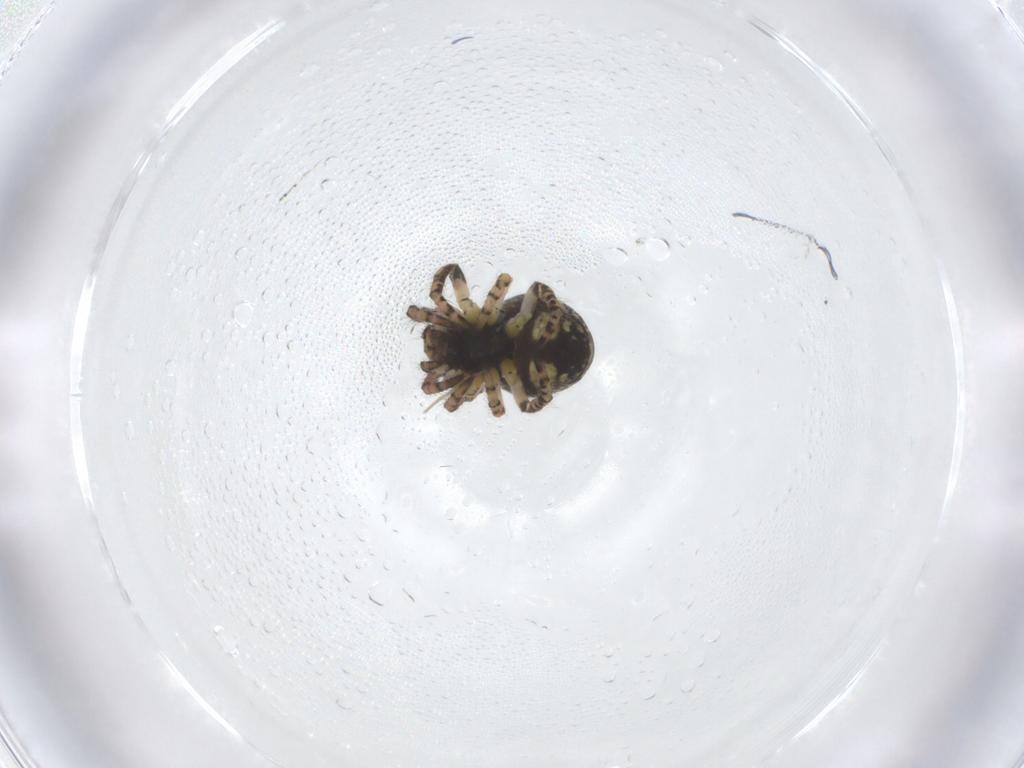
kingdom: Animalia
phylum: Arthropoda
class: Arachnida
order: Araneae
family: Araneidae
